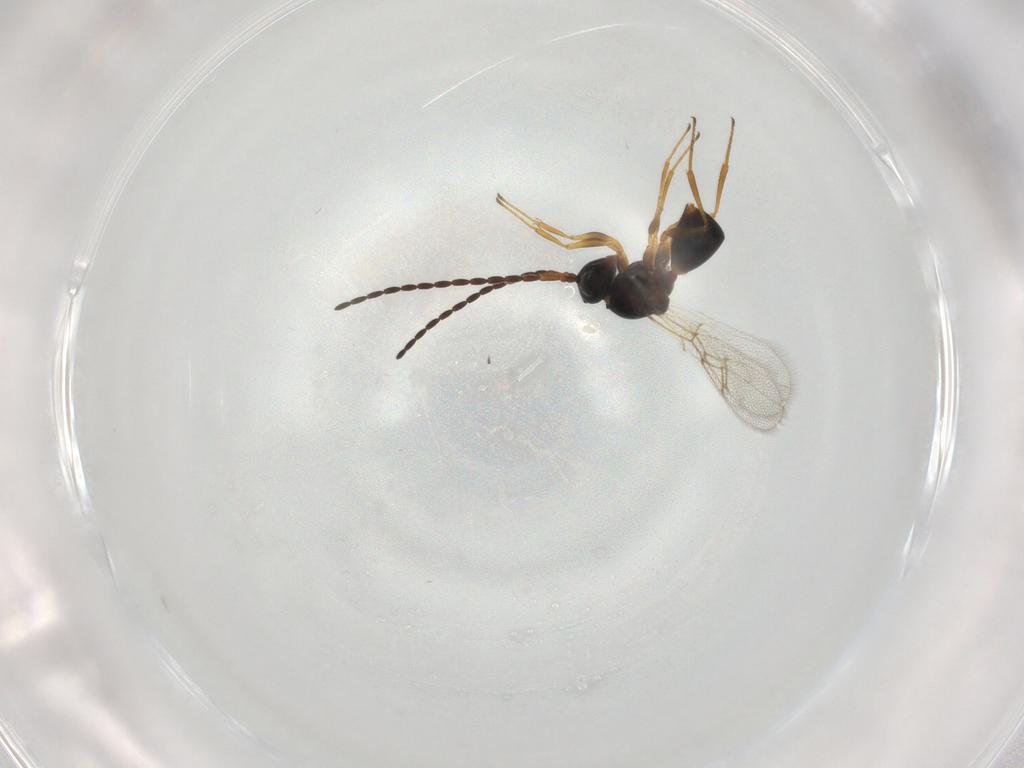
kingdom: Animalia
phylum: Arthropoda
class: Insecta
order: Hymenoptera
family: Figitidae
